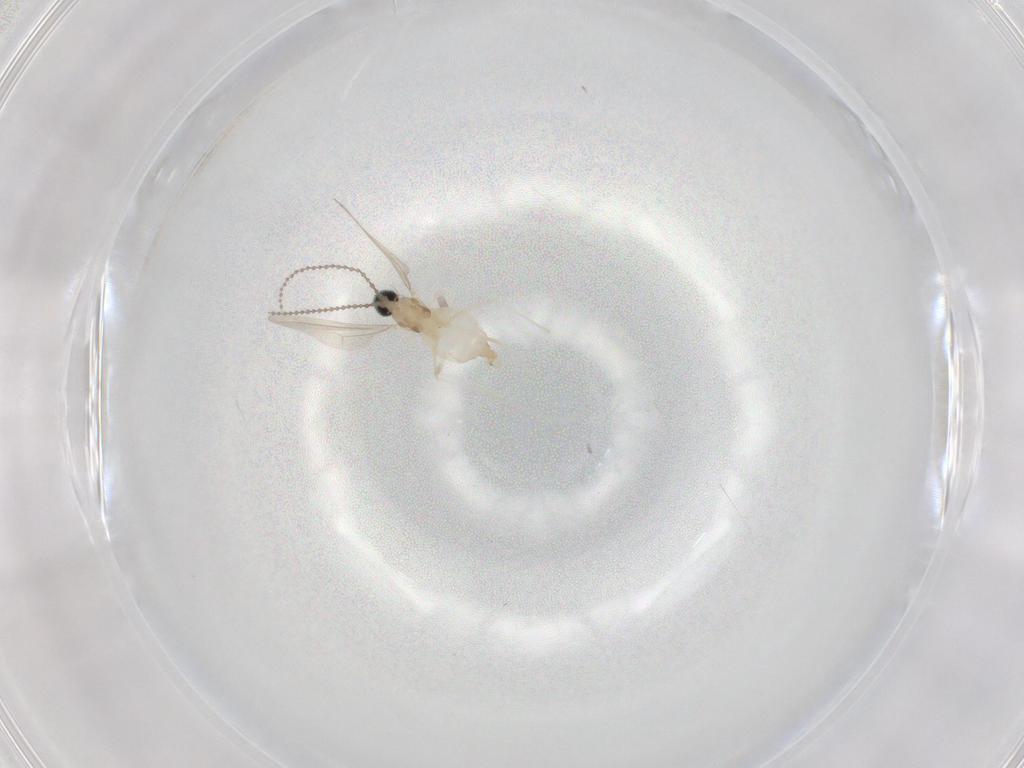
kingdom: Animalia
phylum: Arthropoda
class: Insecta
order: Diptera
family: Cecidomyiidae
